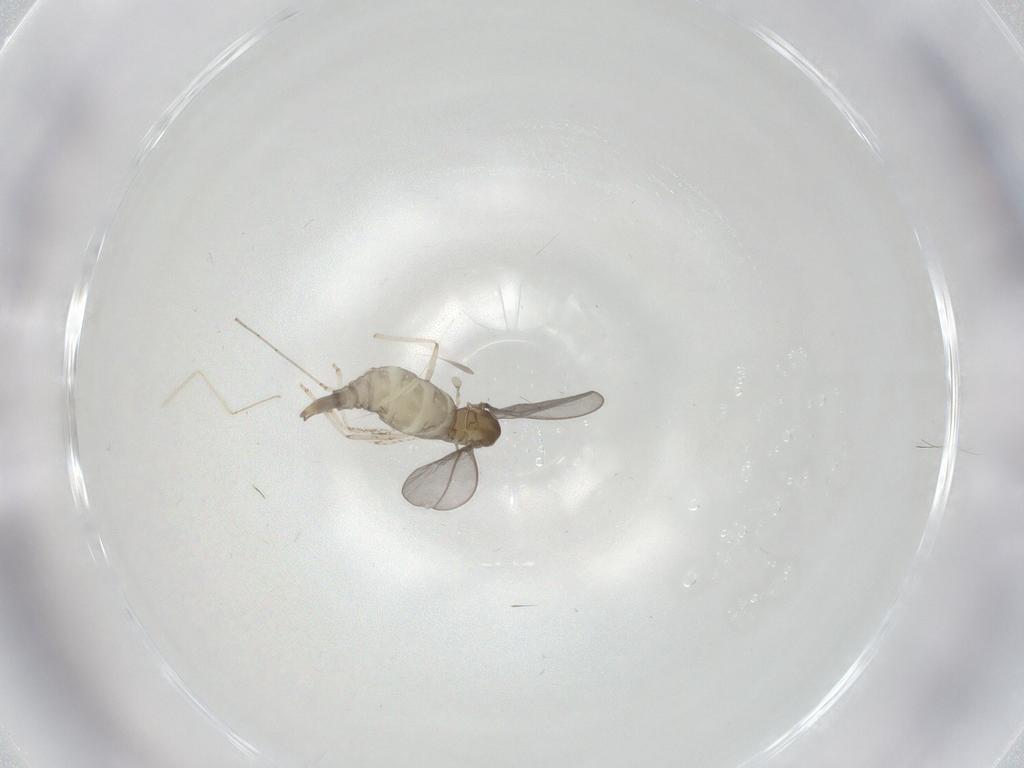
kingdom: Animalia
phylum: Arthropoda
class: Insecta
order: Diptera
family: Cecidomyiidae
